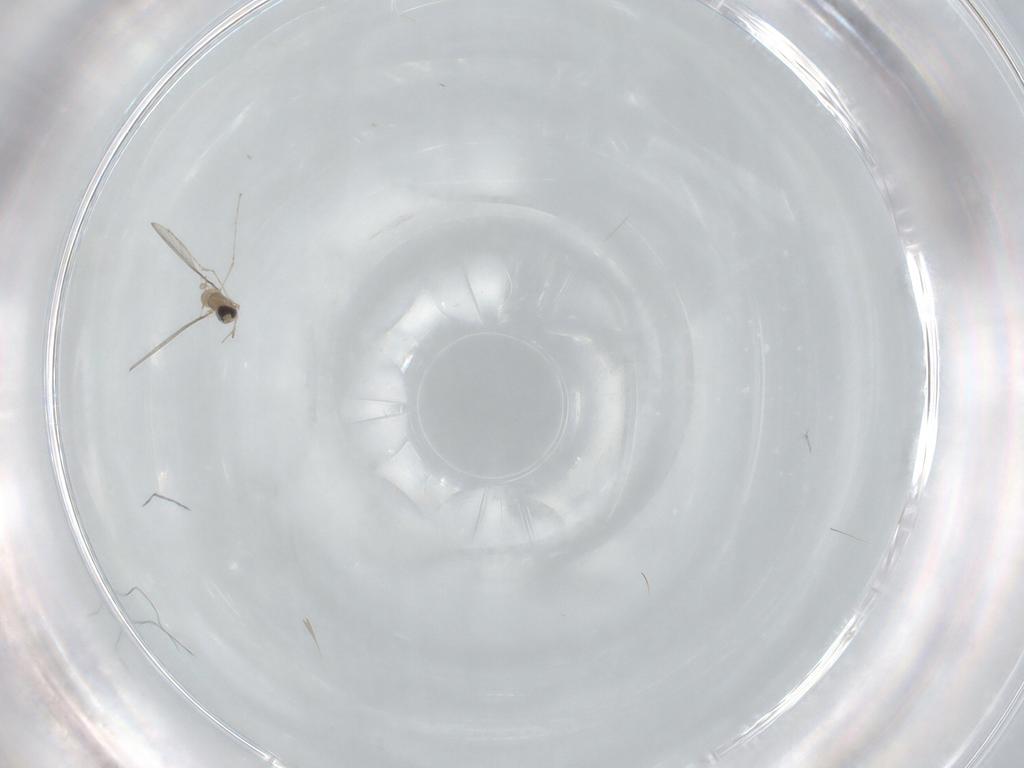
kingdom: Animalia
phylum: Arthropoda
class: Insecta
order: Diptera
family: Cecidomyiidae
